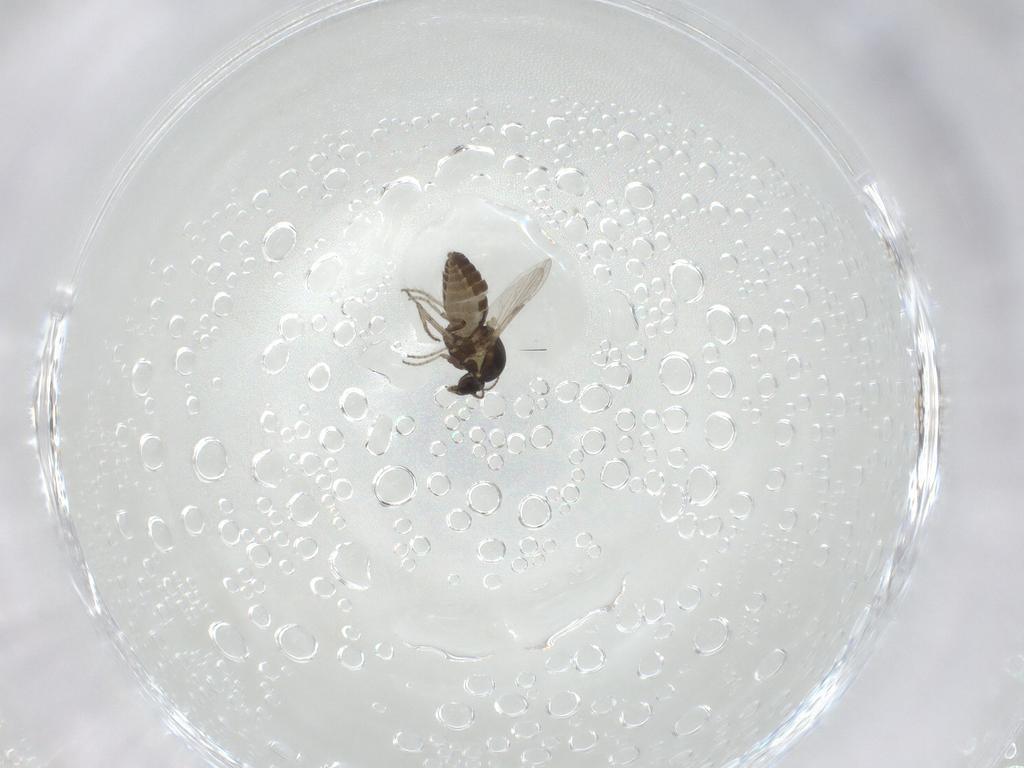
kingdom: Animalia
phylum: Arthropoda
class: Insecta
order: Diptera
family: Ceratopogonidae
